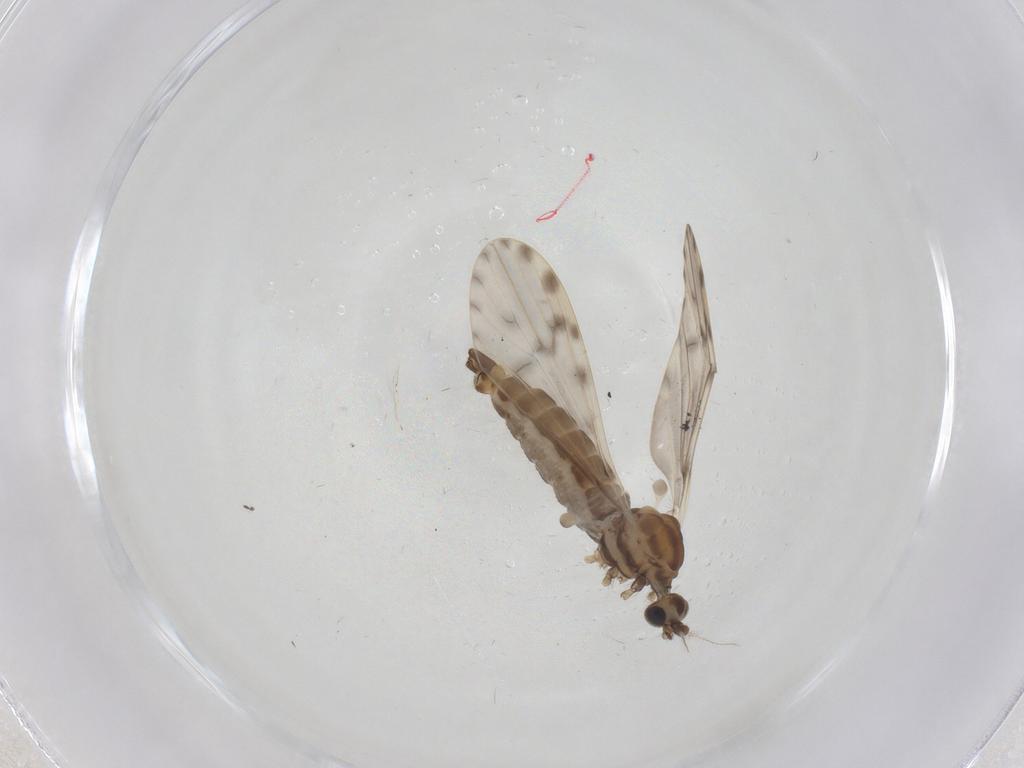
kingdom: Animalia
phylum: Arthropoda
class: Insecta
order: Diptera
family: Limoniidae
